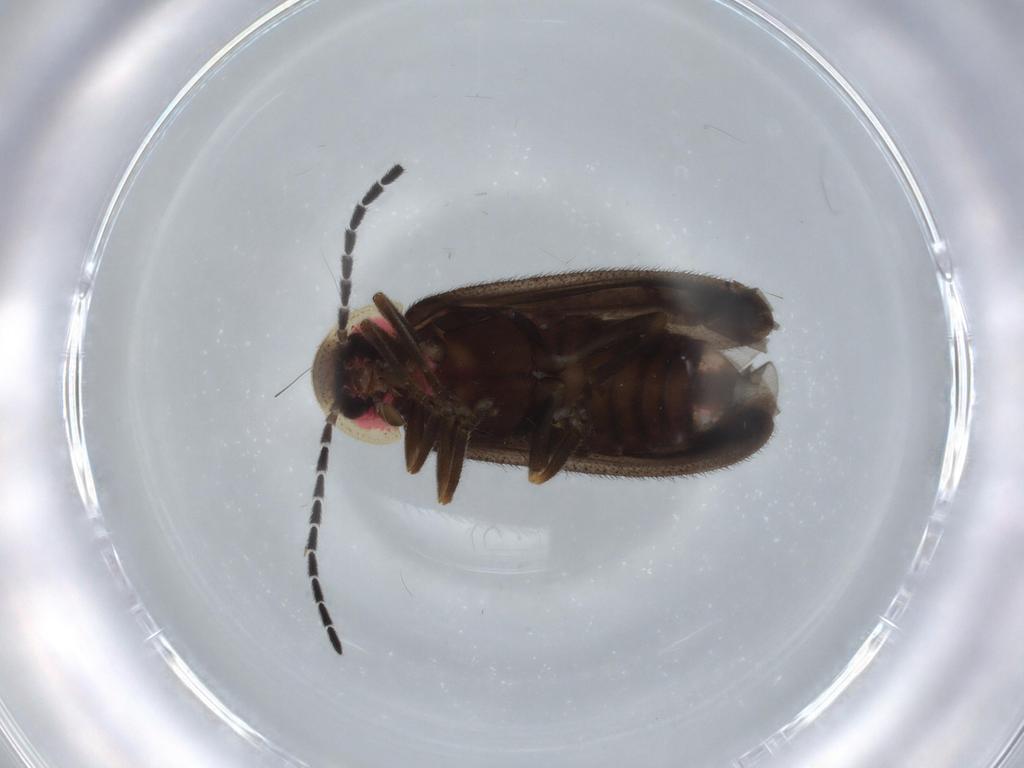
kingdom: Animalia
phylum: Arthropoda
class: Insecta
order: Coleoptera
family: Lampyridae
